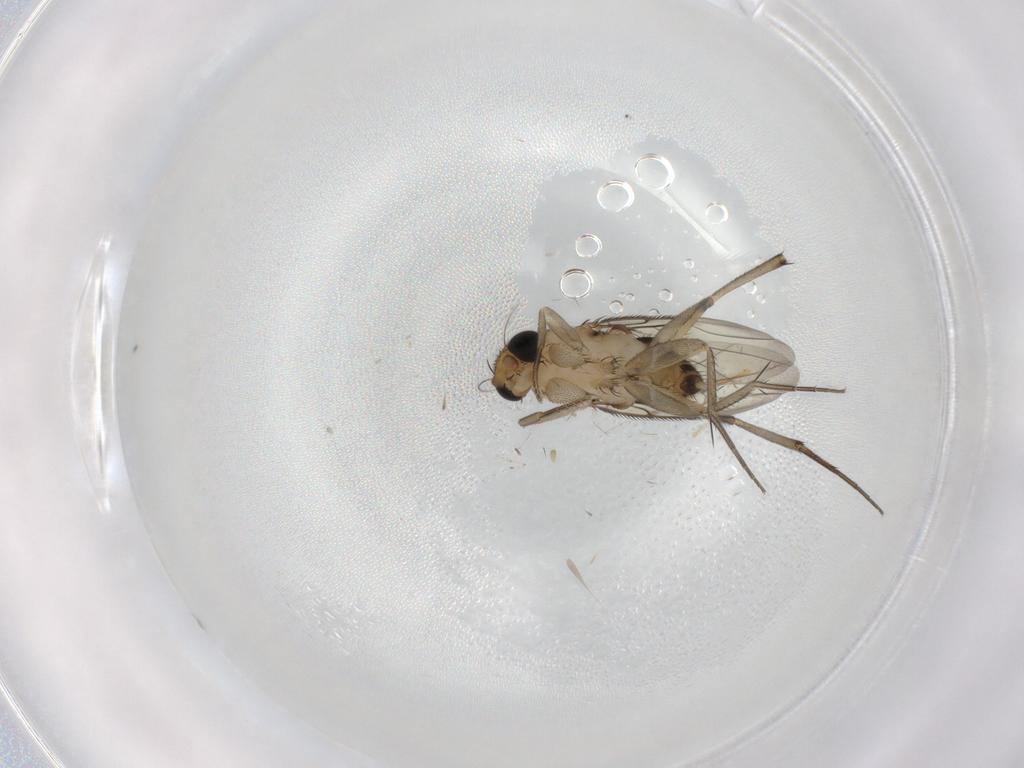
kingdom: Animalia
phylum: Arthropoda
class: Insecta
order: Diptera
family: Phoridae
